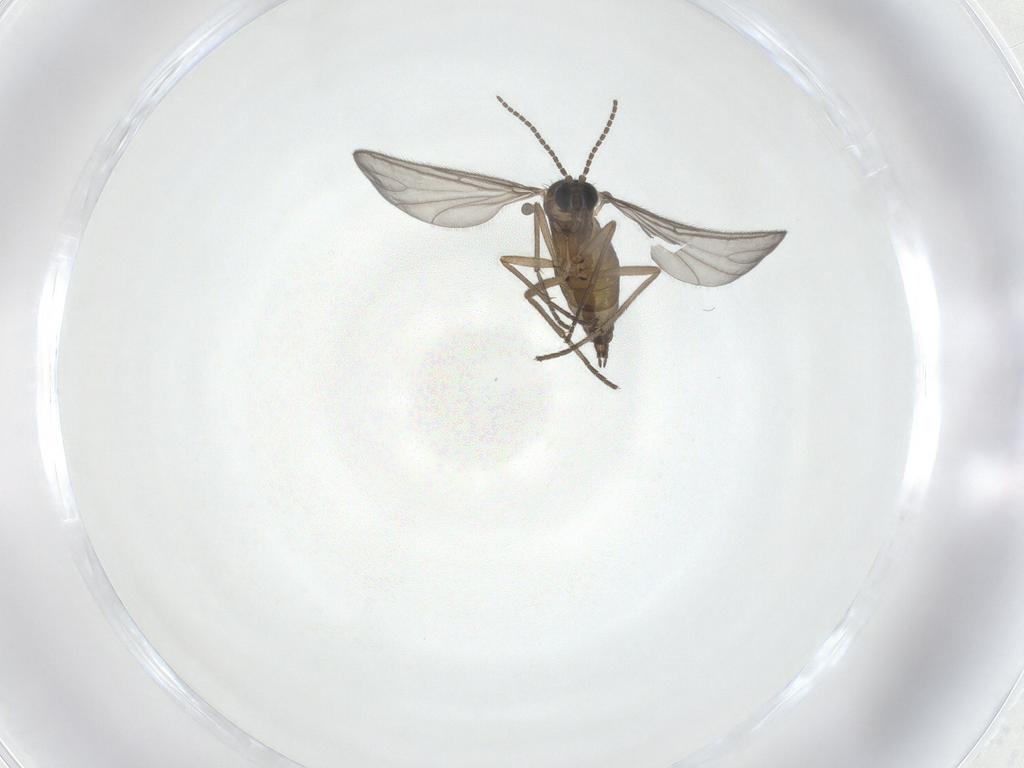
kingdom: Animalia
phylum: Arthropoda
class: Insecta
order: Diptera
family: Sciaridae
